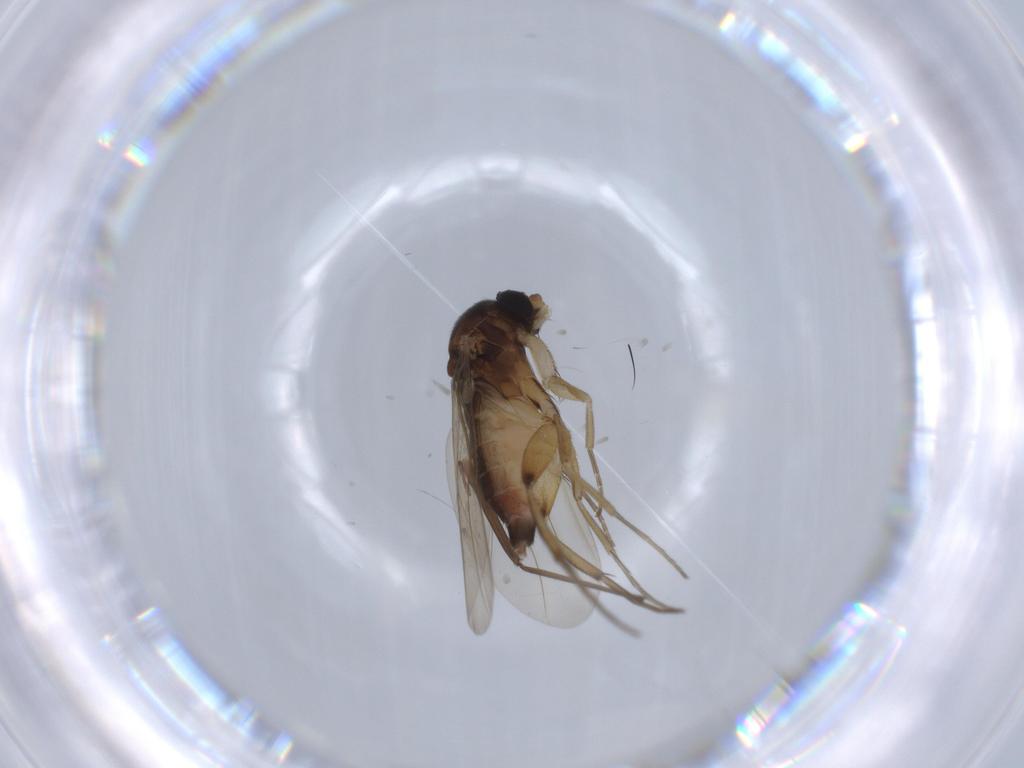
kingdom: Animalia
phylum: Arthropoda
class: Insecta
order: Diptera
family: Phoridae
